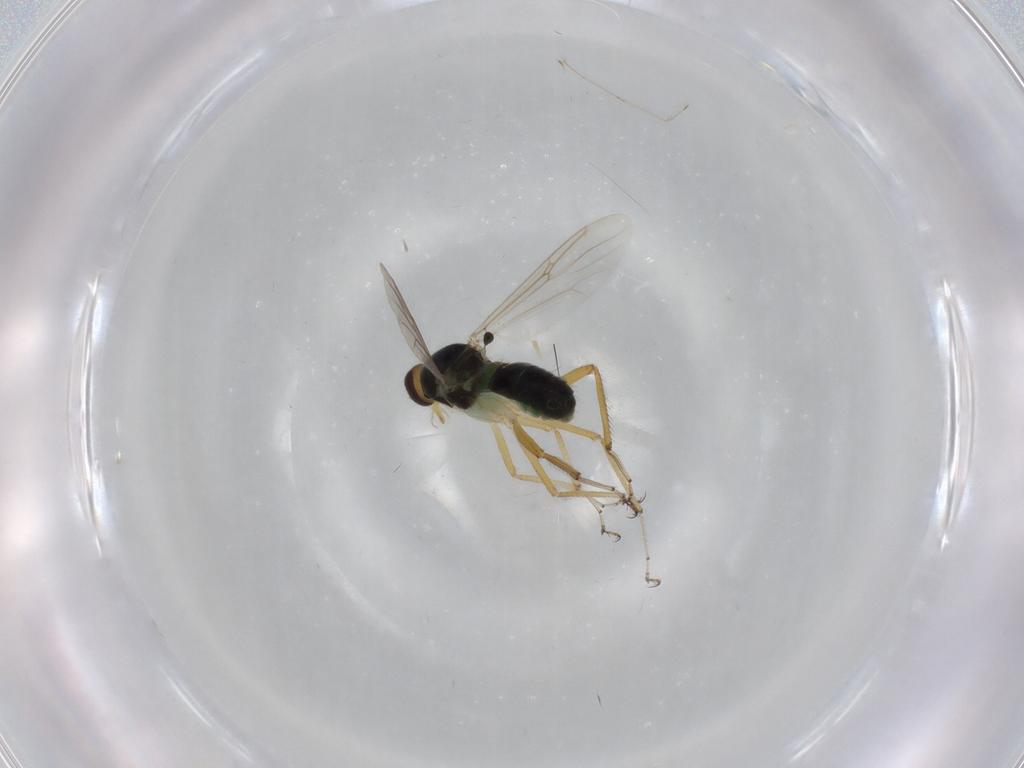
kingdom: Animalia
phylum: Arthropoda
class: Insecta
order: Diptera
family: Ceratopogonidae
